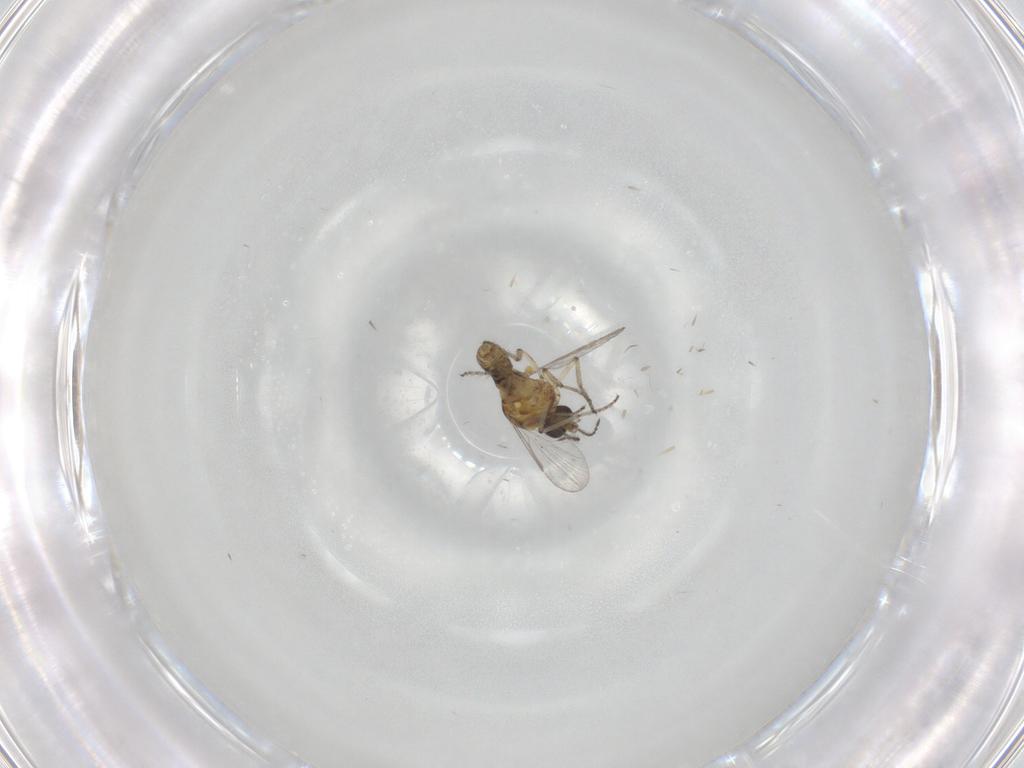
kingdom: Animalia
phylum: Arthropoda
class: Insecta
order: Diptera
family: Ceratopogonidae
